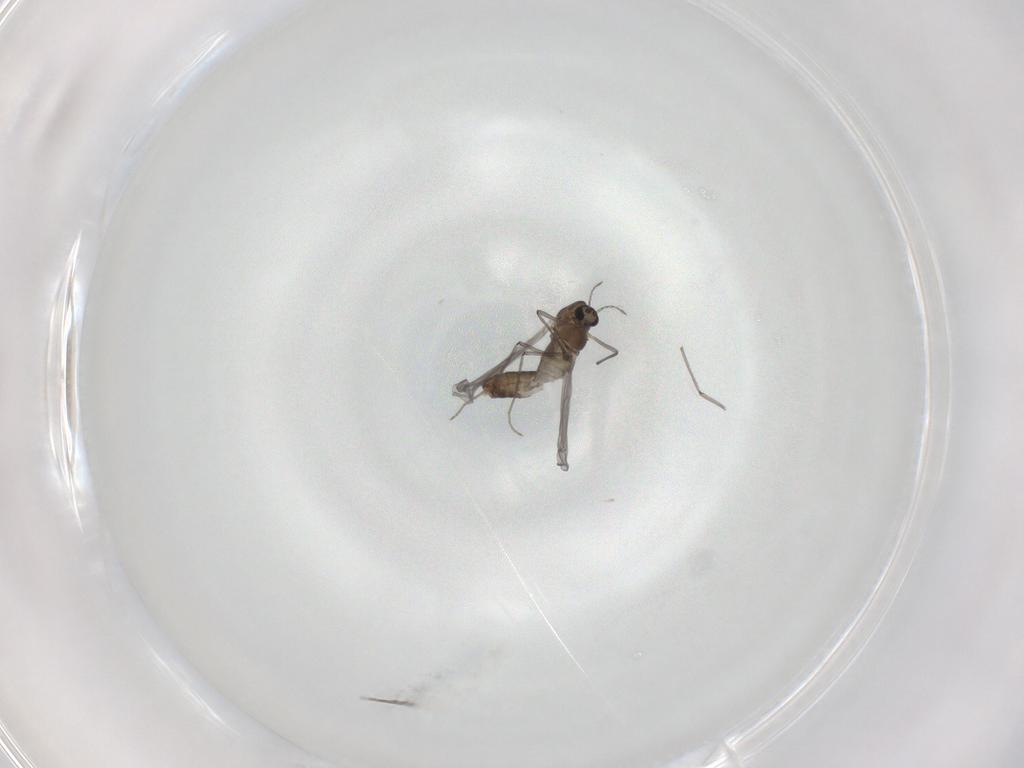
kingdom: Animalia
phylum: Arthropoda
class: Insecta
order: Diptera
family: Chironomidae
